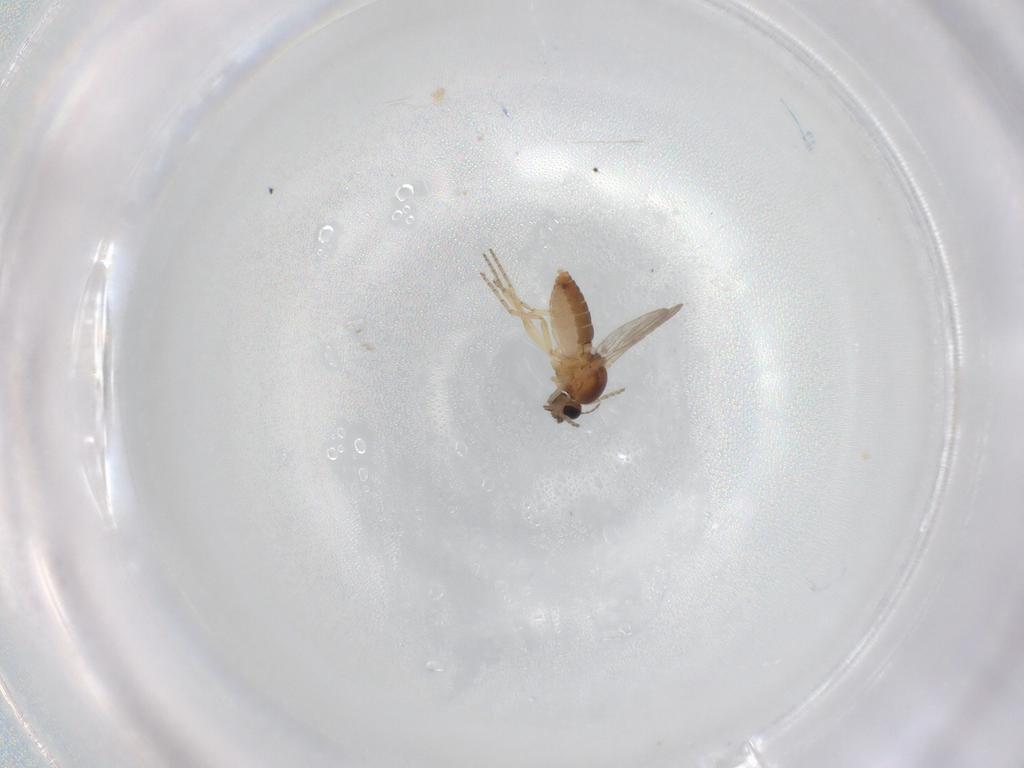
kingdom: Animalia
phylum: Arthropoda
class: Insecta
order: Diptera
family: Ceratopogonidae
